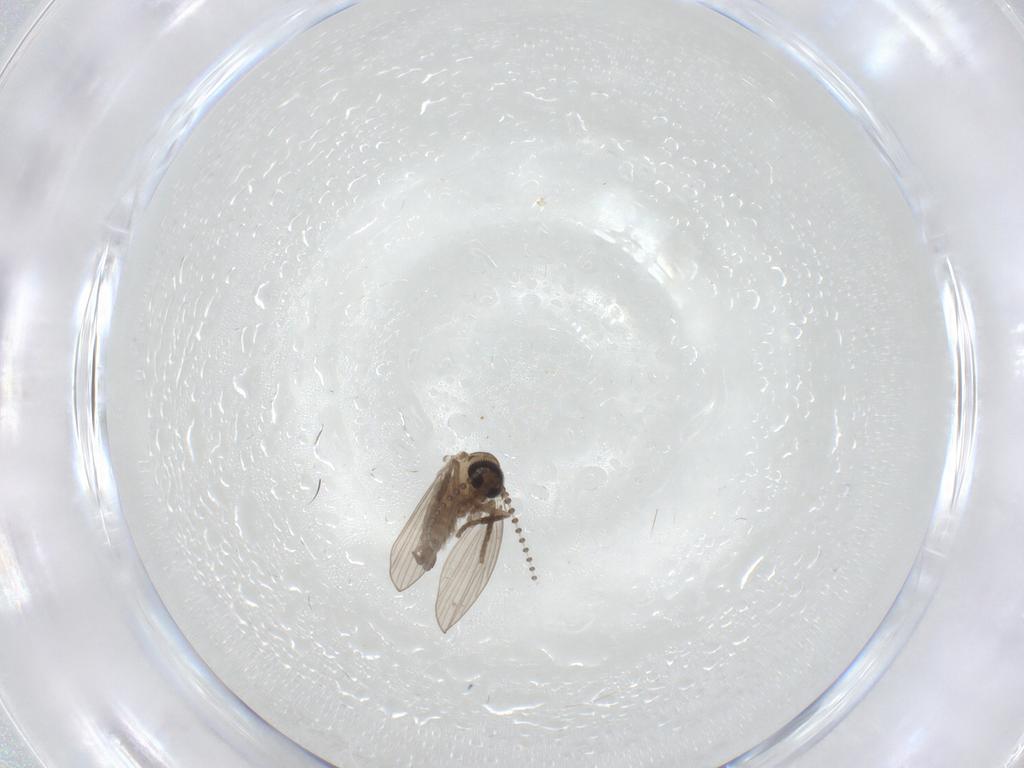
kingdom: Animalia
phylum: Arthropoda
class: Insecta
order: Diptera
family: Psychodidae
